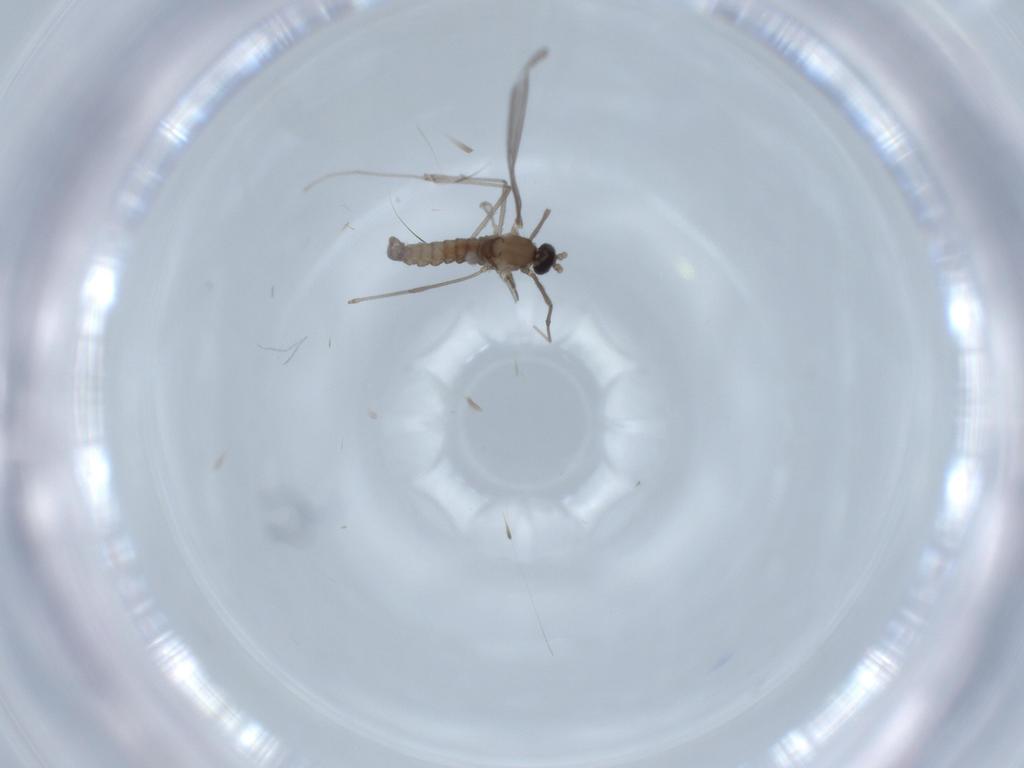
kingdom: Animalia
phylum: Arthropoda
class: Insecta
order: Diptera
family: Cecidomyiidae
